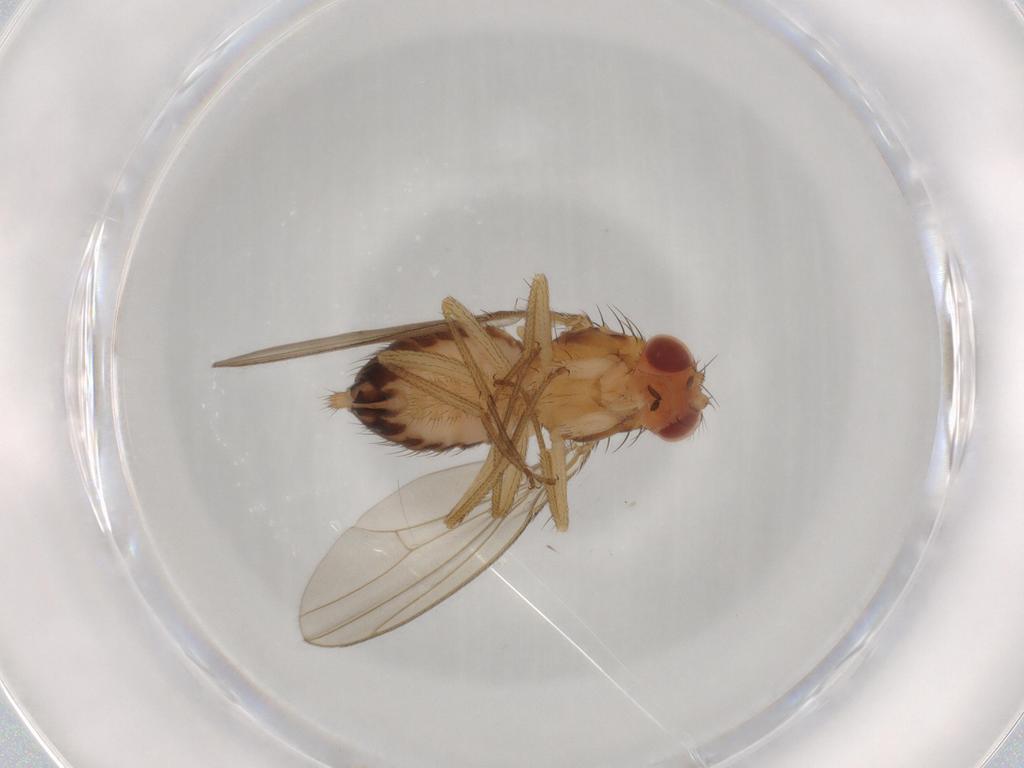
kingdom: Animalia
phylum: Arthropoda
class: Insecta
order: Diptera
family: Drosophilidae
